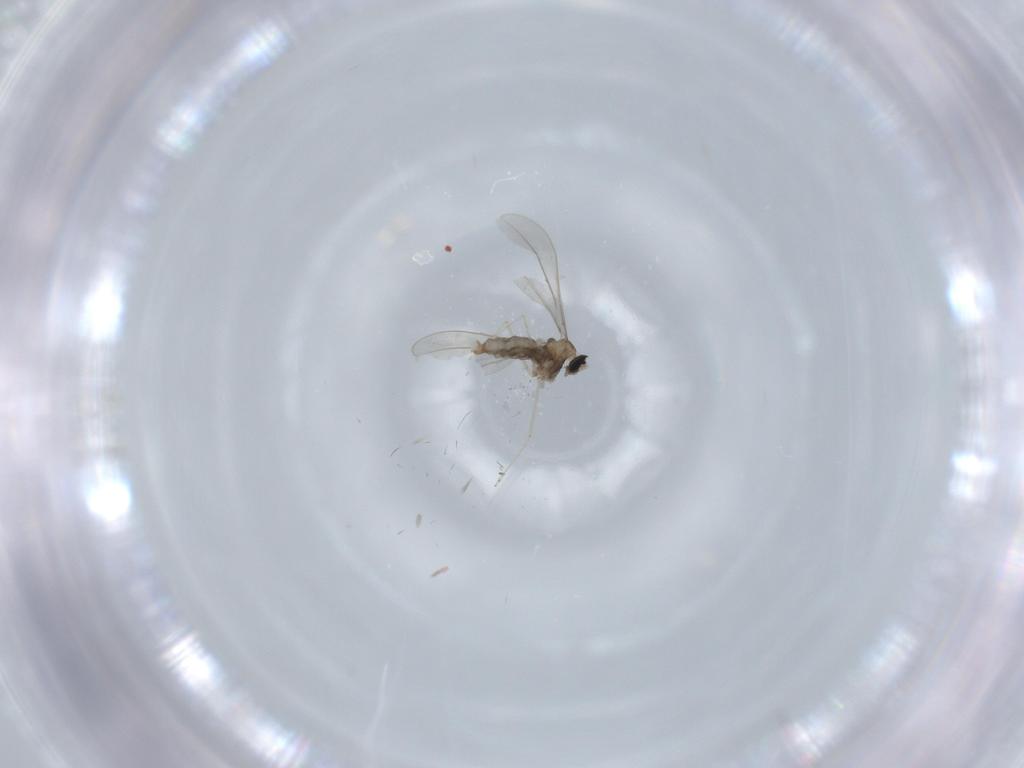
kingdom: Animalia
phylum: Arthropoda
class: Insecta
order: Diptera
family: Cecidomyiidae
